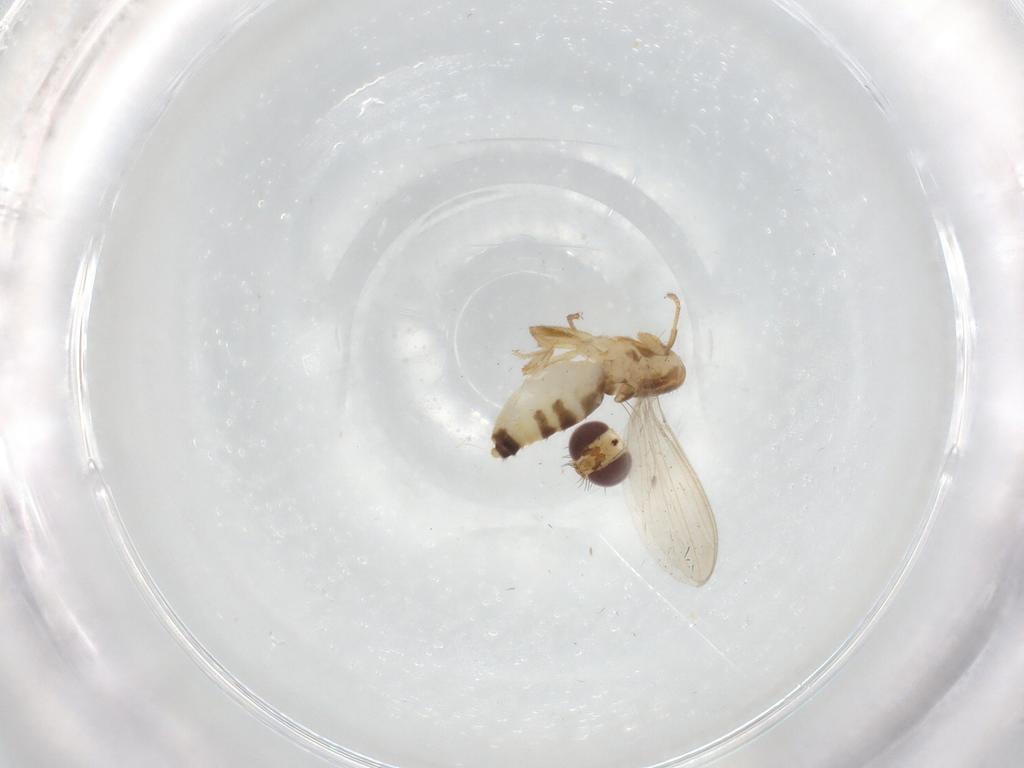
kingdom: Animalia
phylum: Arthropoda
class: Insecta
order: Diptera
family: Periscelididae
